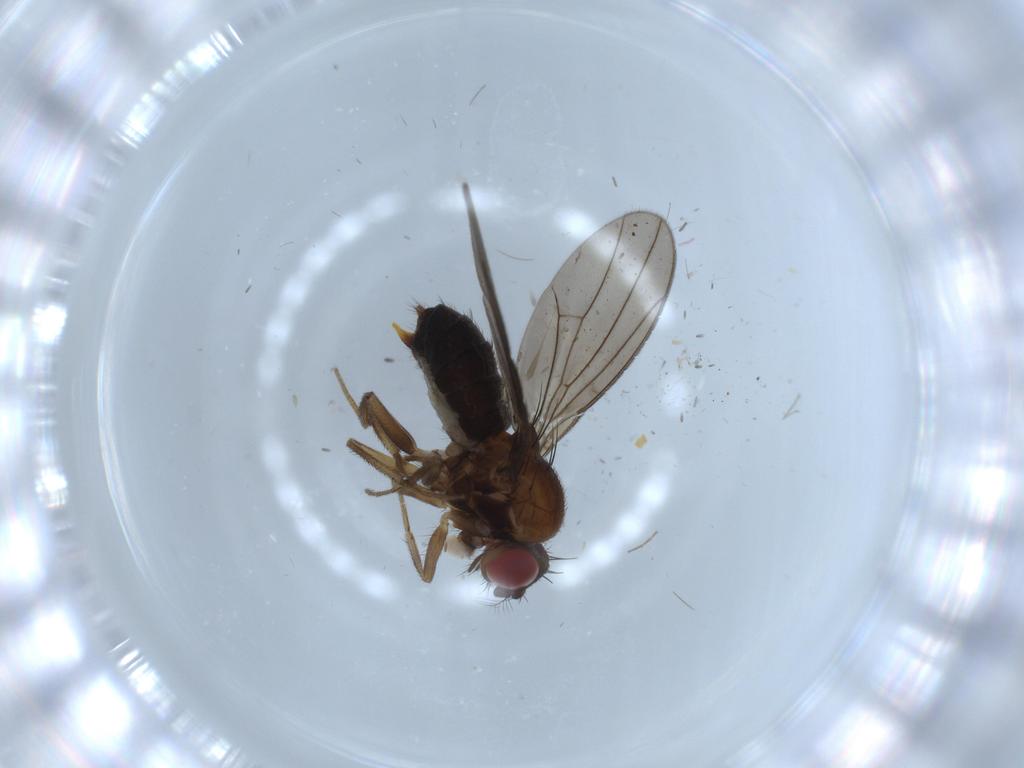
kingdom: Animalia
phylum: Arthropoda
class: Insecta
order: Diptera
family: Drosophilidae
